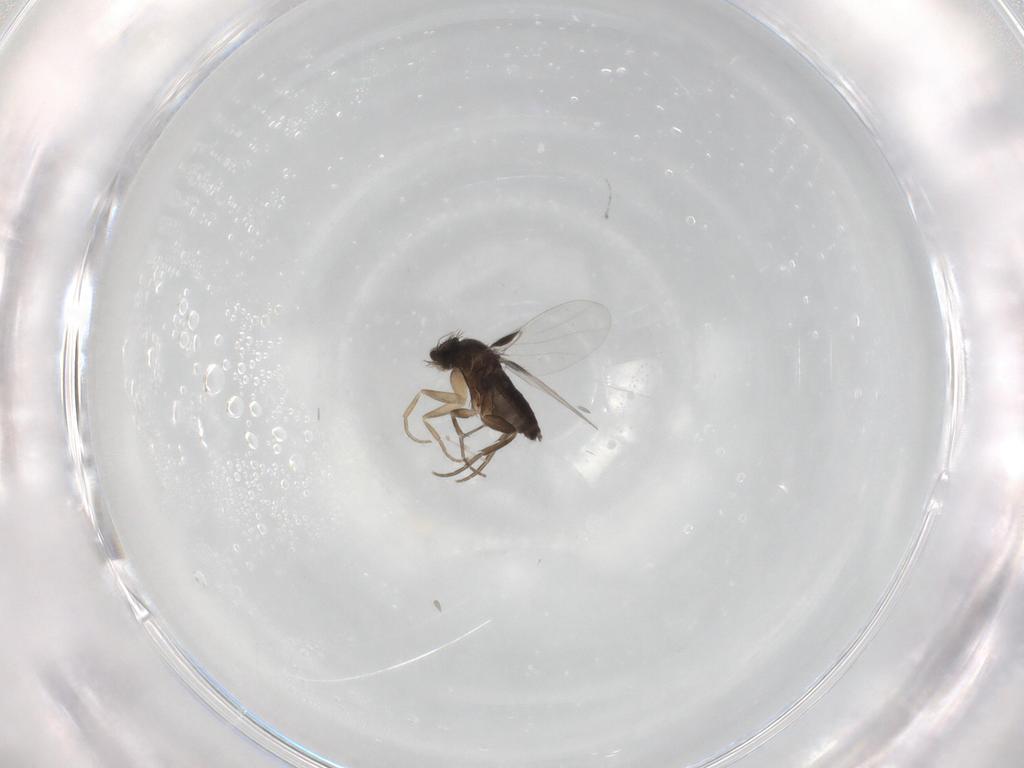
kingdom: Animalia
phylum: Arthropoda
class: Insecta
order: Diptera
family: Cecidomyiidae
